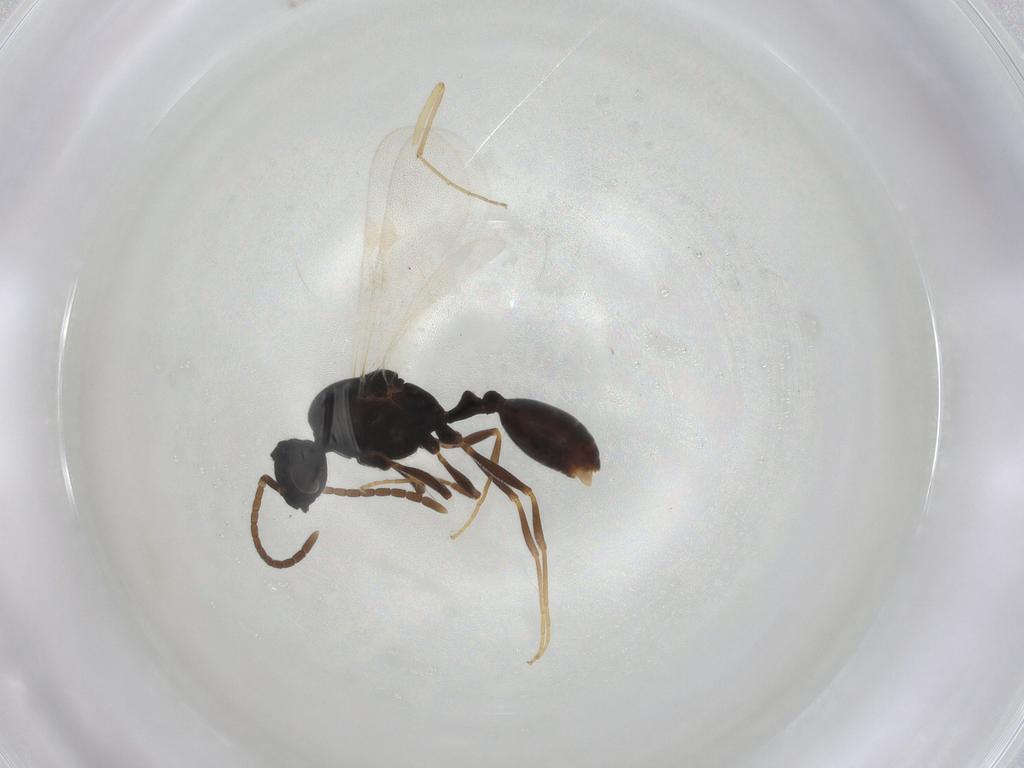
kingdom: Animalia
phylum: Arthropoda
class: Insecta
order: Hymenoptera
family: Formicidae
